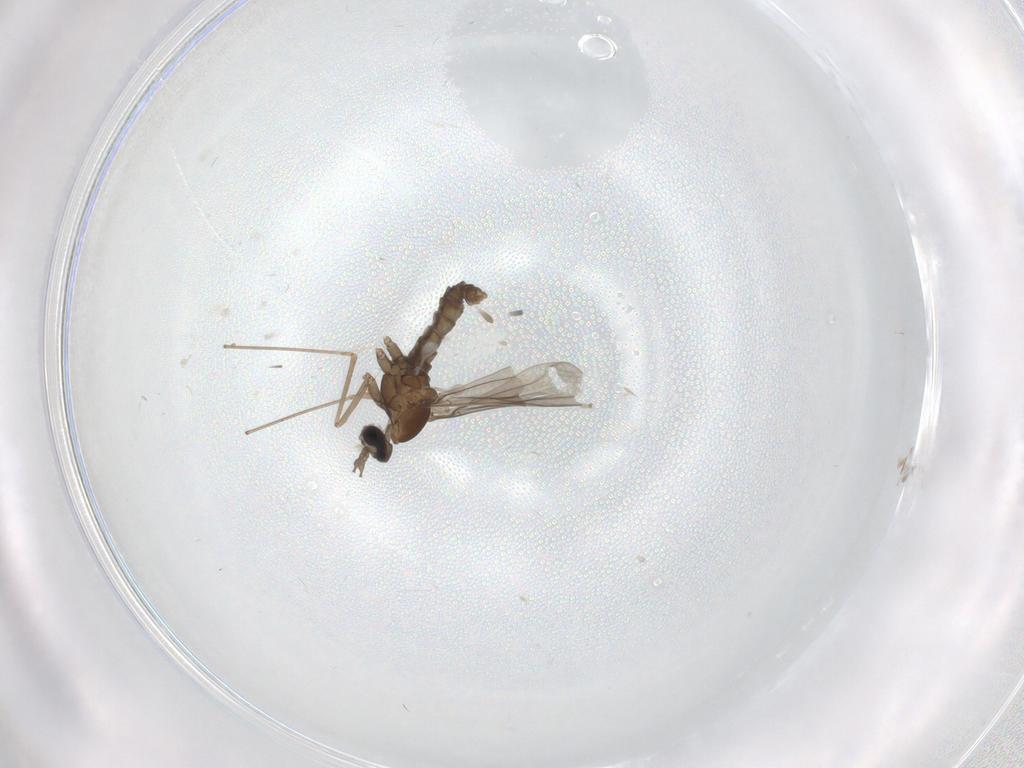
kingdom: Animalia
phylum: Arthropoda
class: Insecta
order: Diptera
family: Cecidomyiidae
